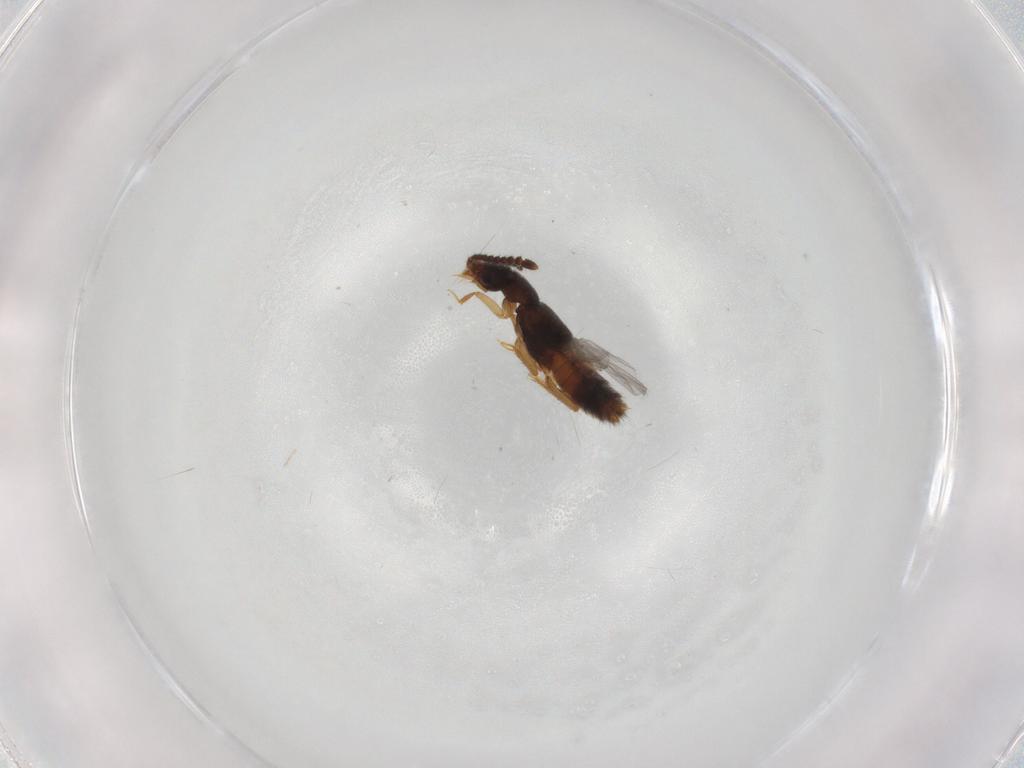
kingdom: Animalia
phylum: Arthropoda
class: Insecta
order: Coleoptera
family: Staphylinidae
